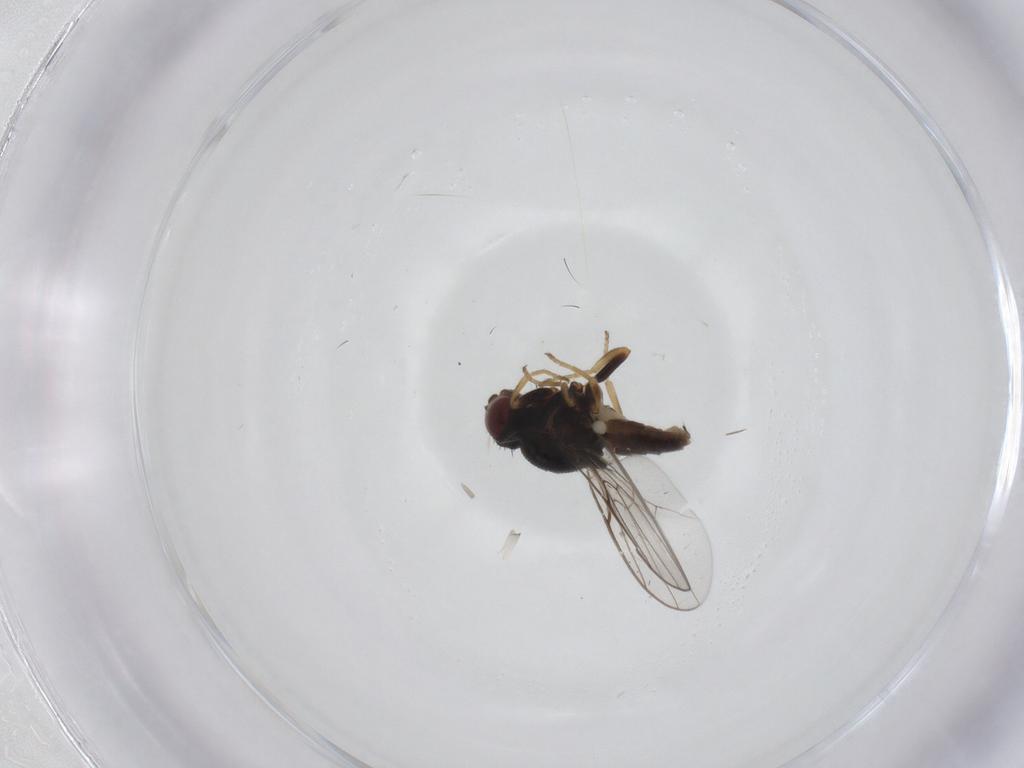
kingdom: Animalia
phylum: Arthropoda
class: Insecta
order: Diptera
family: Chloropidae
